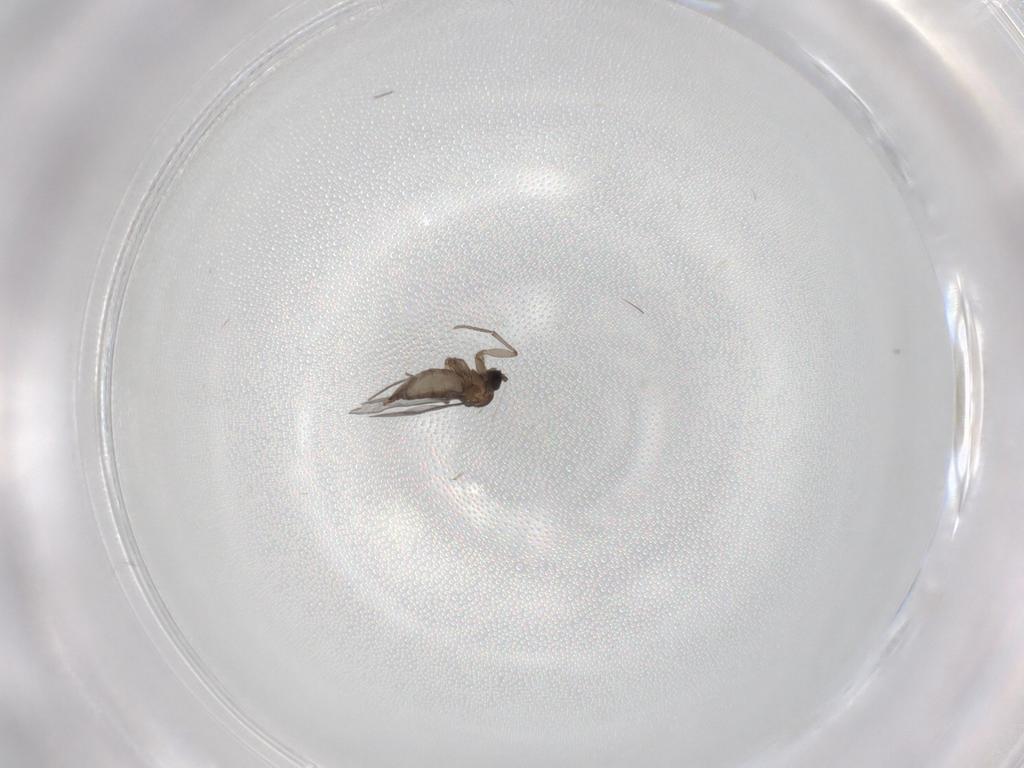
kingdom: Animalia
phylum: Arthropoda
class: Insecta
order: Diptera
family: Sciaridae
